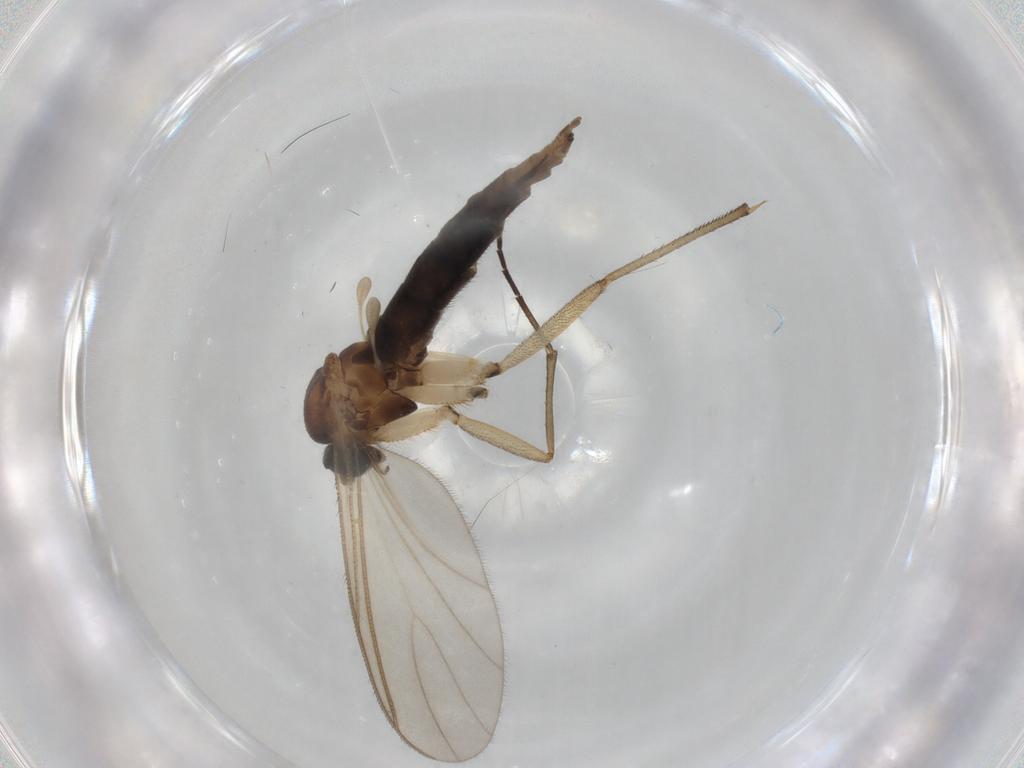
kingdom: Animalia
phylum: Arthropoda
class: Insecta
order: Diptera
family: Sciaridae
